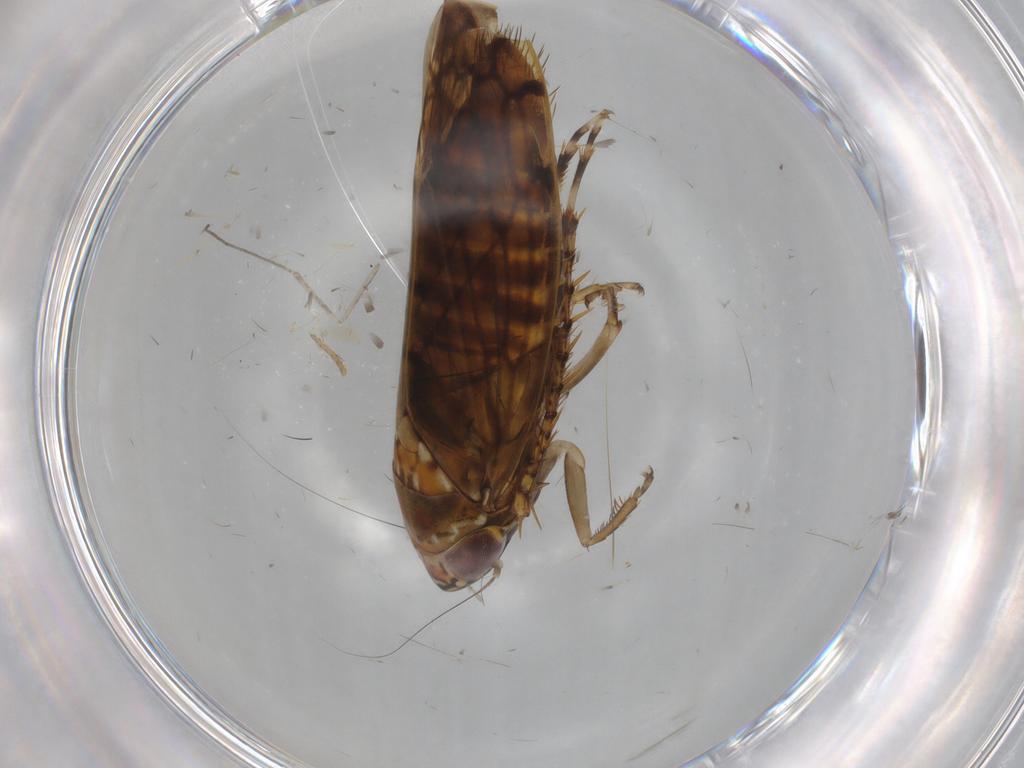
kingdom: Animalia
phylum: Arthropoda
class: Insecta
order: Hemiptera
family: Cicadellidae
